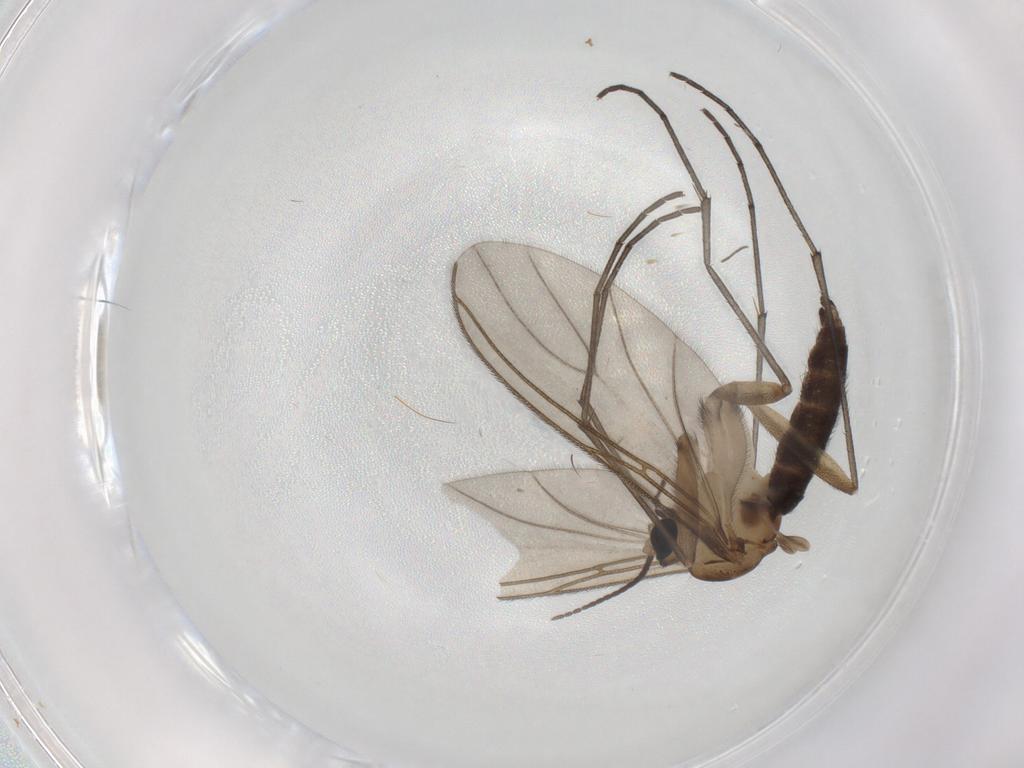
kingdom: Animalia
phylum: Arthropoda
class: Insecta
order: Diptera
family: Sciaridae
